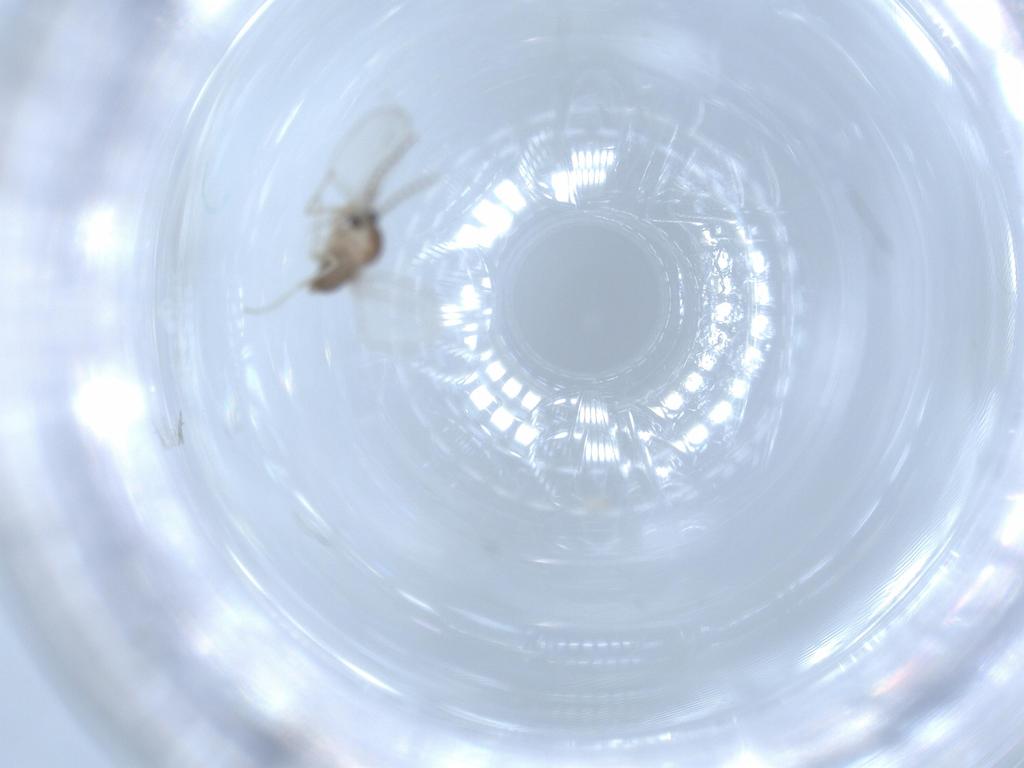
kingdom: Animalia
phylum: Arthropoda
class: Insecta
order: Diptera
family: Cecidomyiidae
